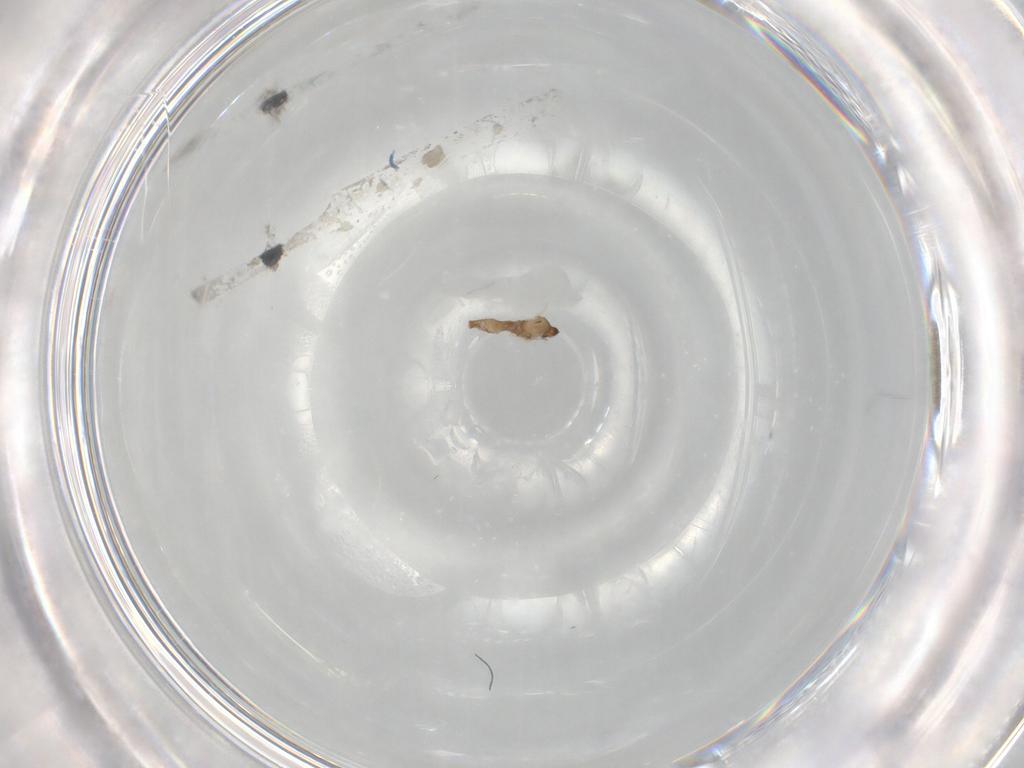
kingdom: Animalia
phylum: Arthropoda
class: Insecta
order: Diptera
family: Cecidomyiidae
